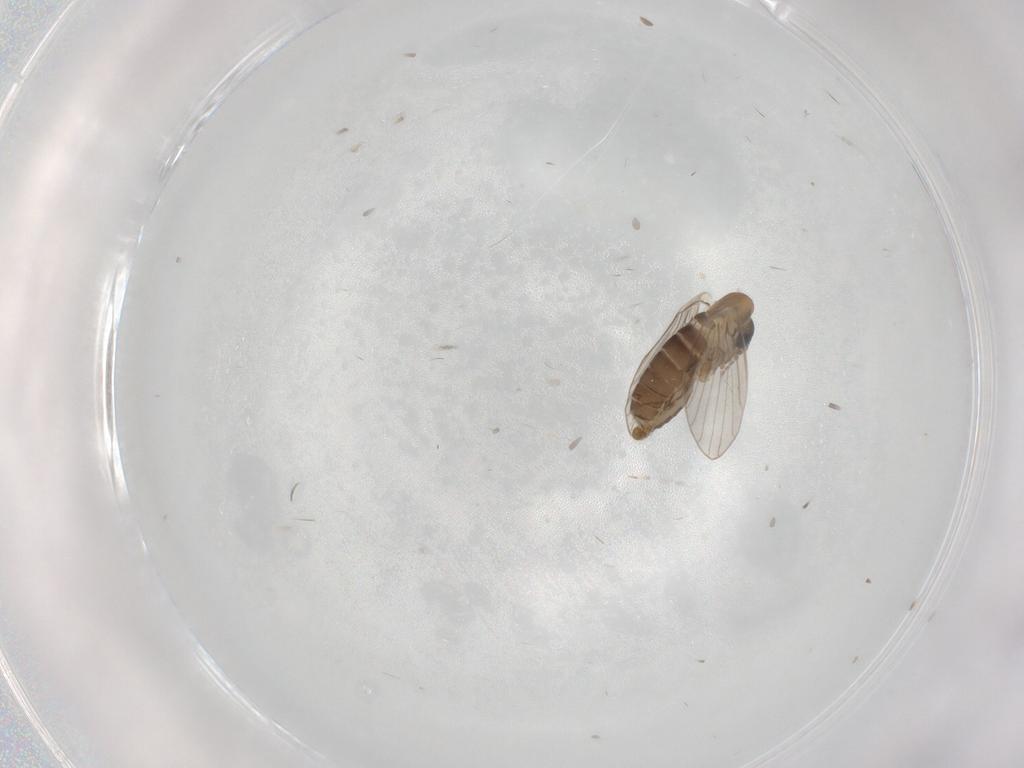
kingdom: Animalia
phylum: Arthropoda
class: Insecta
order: Diptera
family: Psychodidae
